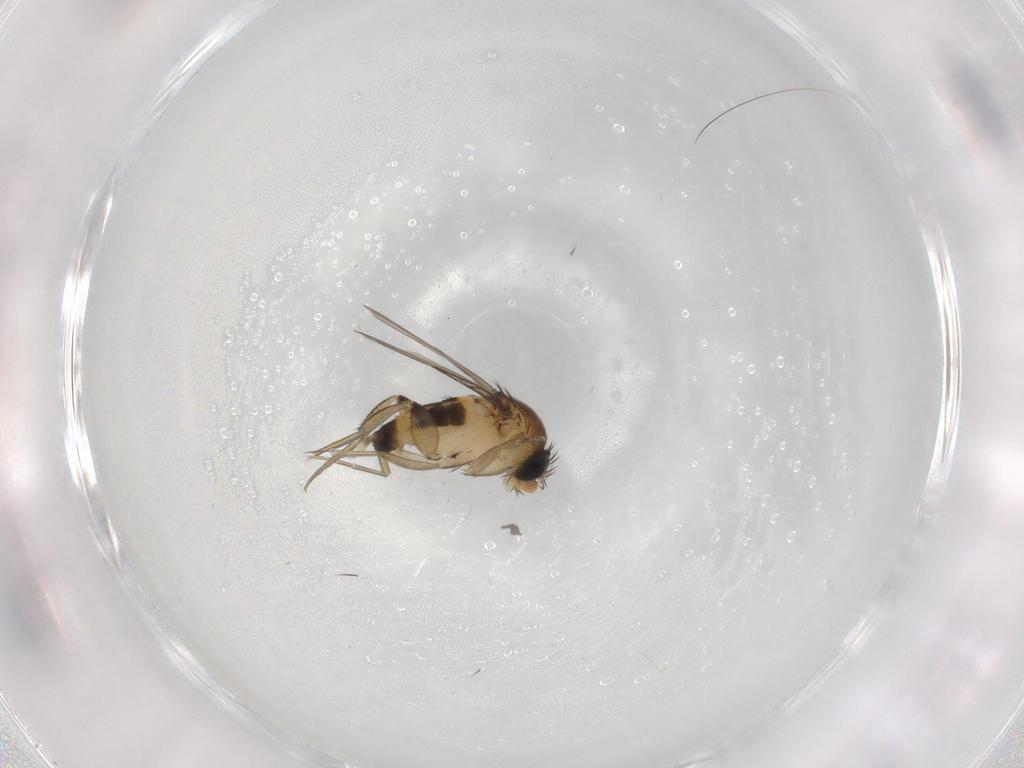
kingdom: Animalia
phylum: Arthropoda
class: Insecta
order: Diptera
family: Phoridae
